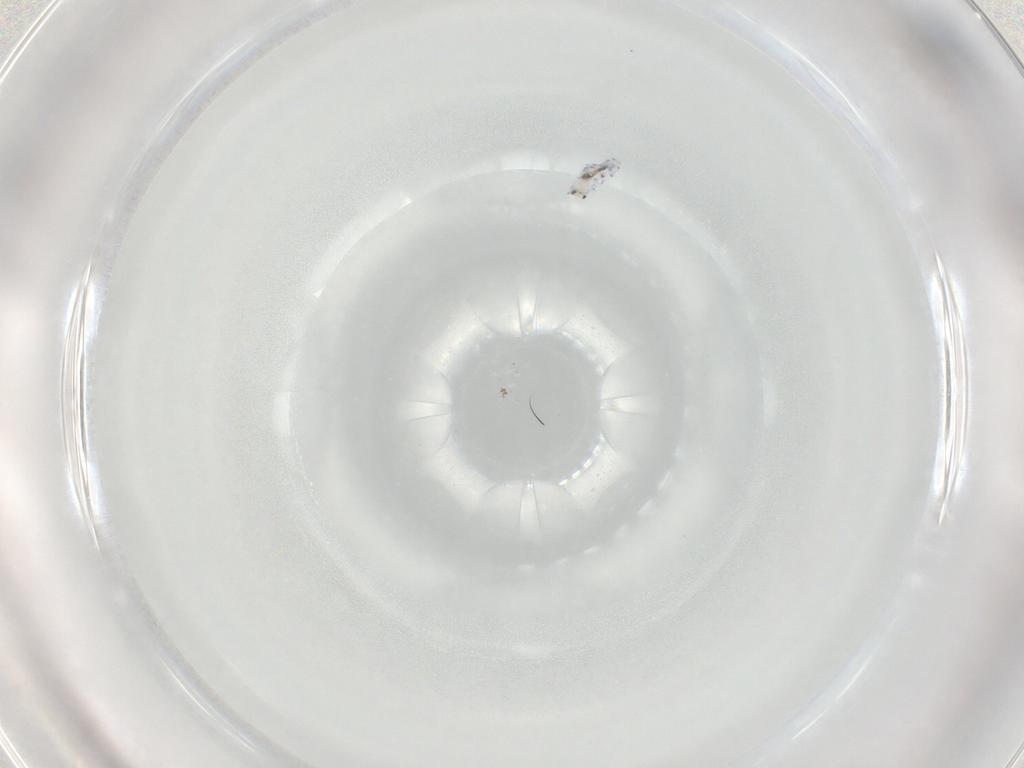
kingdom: Animalia
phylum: Arthropoda
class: Collembola
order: Entomobryomorpha
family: Entomobryidae
